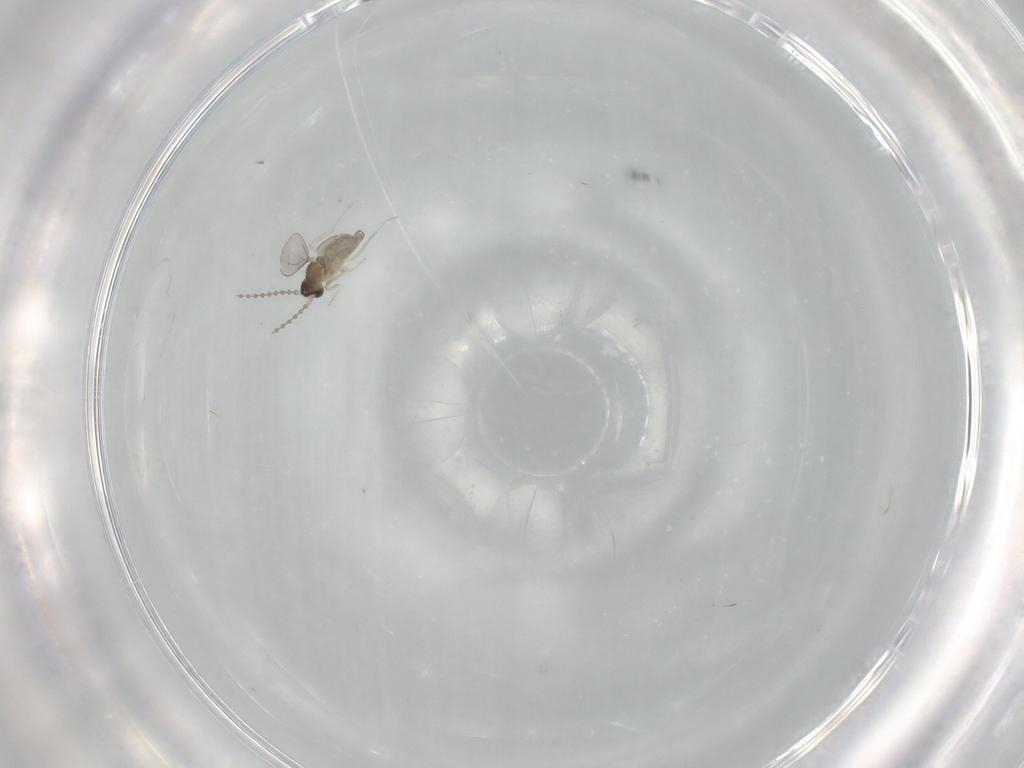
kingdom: Animalia
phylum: Arthropoda
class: Insecta
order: Diptera
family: Cecidomyiidae
